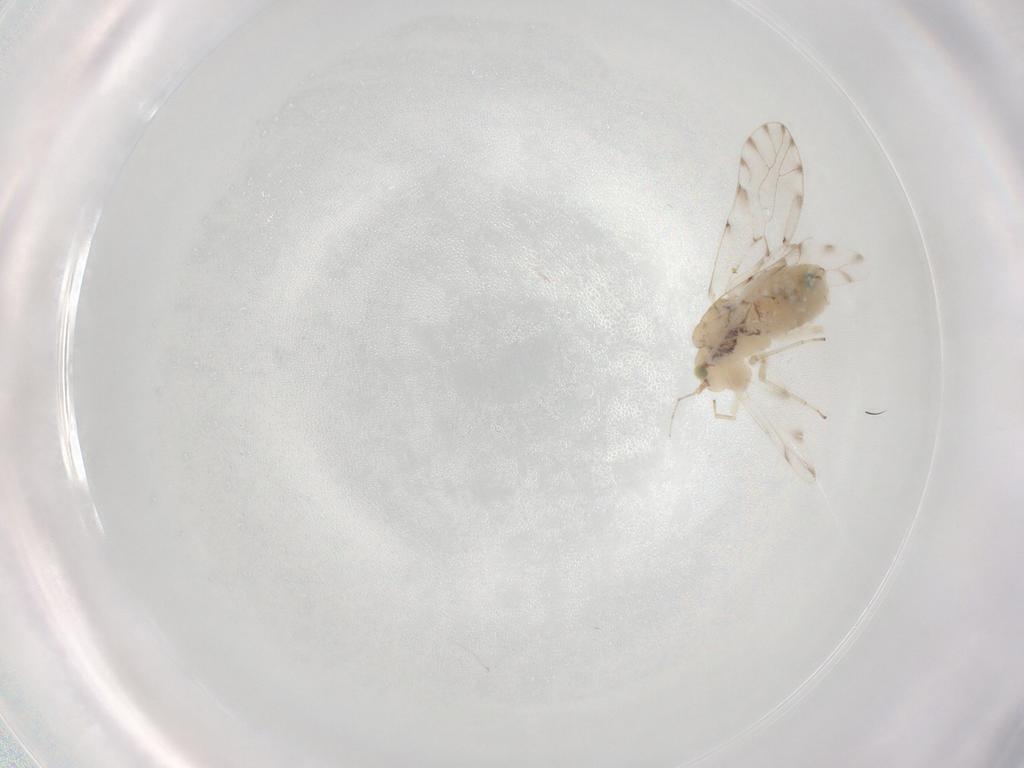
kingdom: Animalia
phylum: Arthropoda
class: Insecta
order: Psocodea
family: Ectopsocidae
